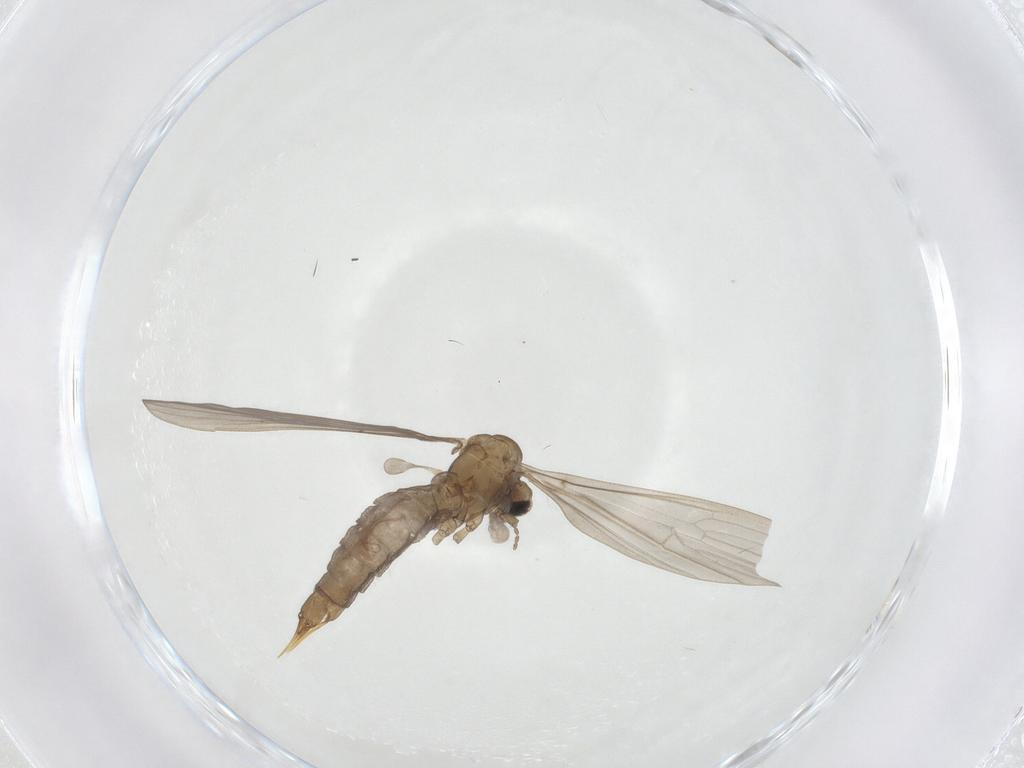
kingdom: Animalia
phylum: Arthropoda
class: Insecta
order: Diptera
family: Limoniidae
